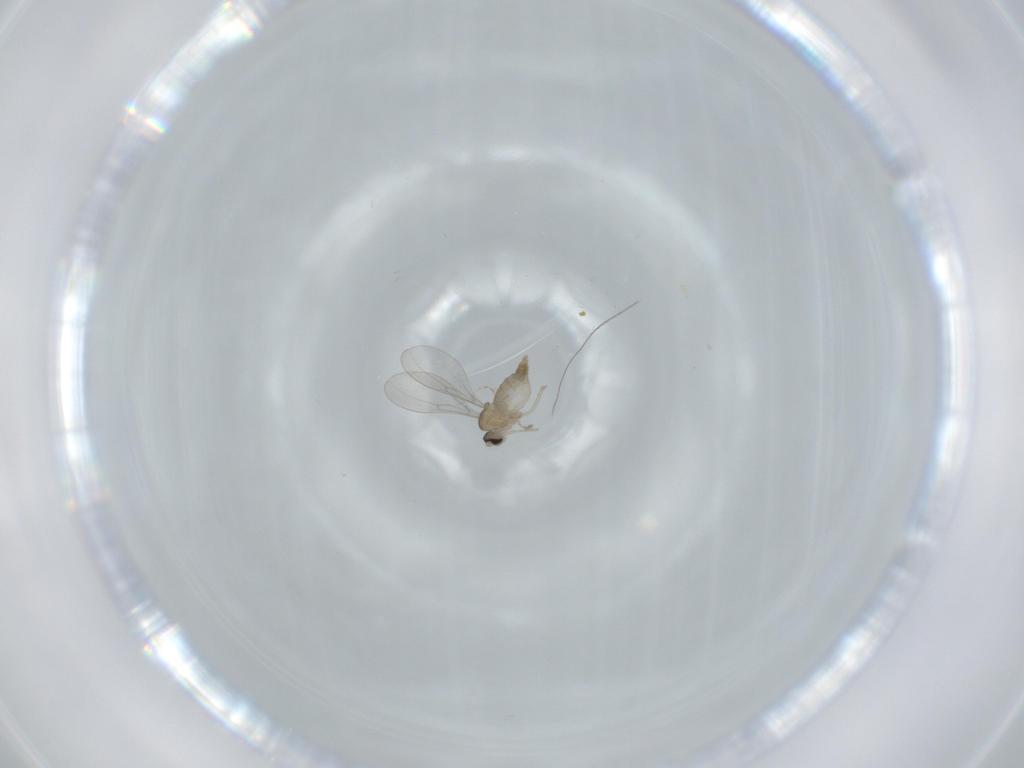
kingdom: Animalia
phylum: Arthropoda
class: Insecta
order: Diptera
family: Cecidomyiidae
